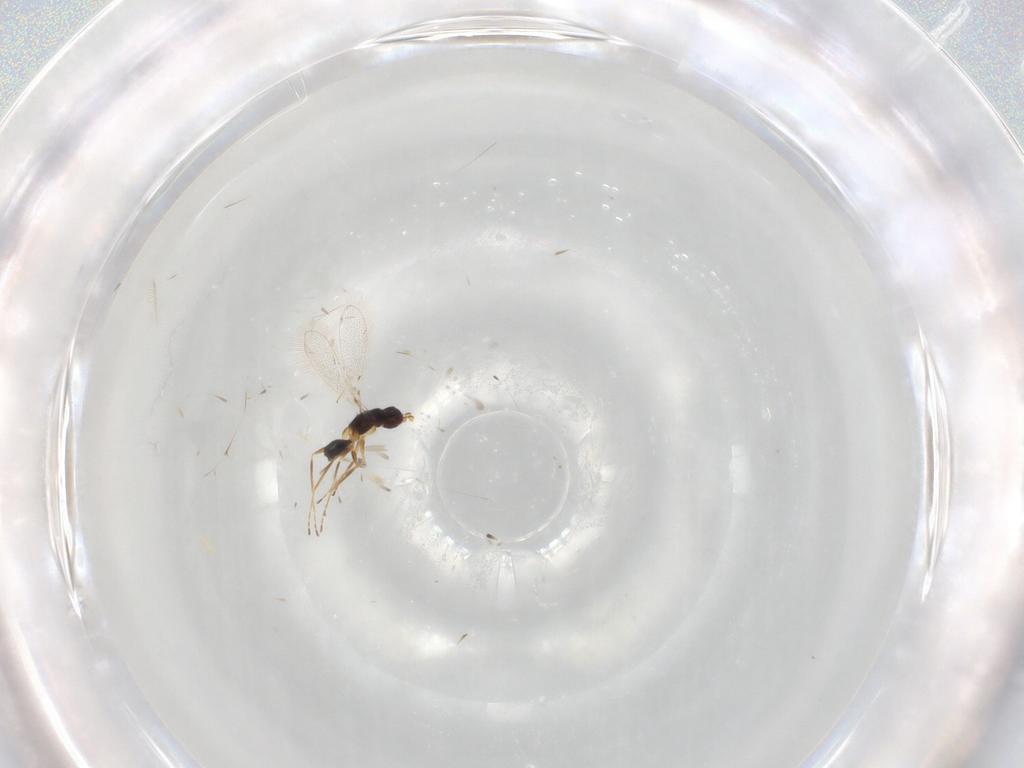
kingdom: Animalia
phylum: Arthropoda
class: Insecta
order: Hymenoptera
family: Mymaridae
